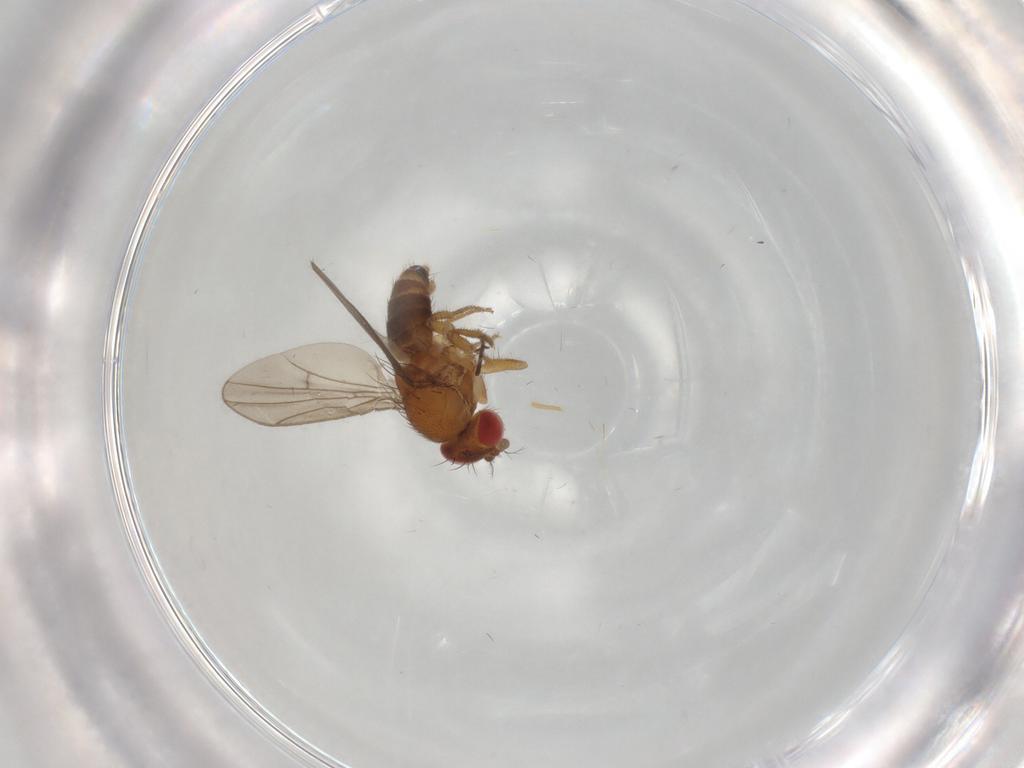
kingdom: Animalia
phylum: Arthropoda
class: Insecta
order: Diptera
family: Drosophilidae
